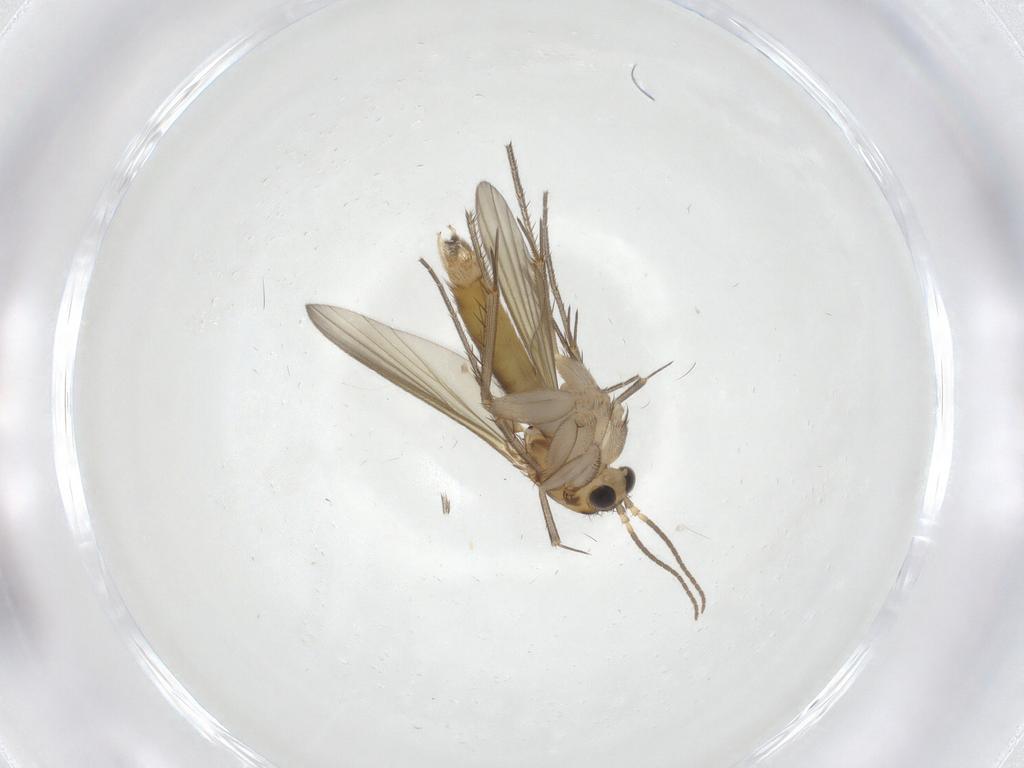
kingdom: Animalia
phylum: Arthropoda
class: Insecta
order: Diptera
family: Mycetophilidae
